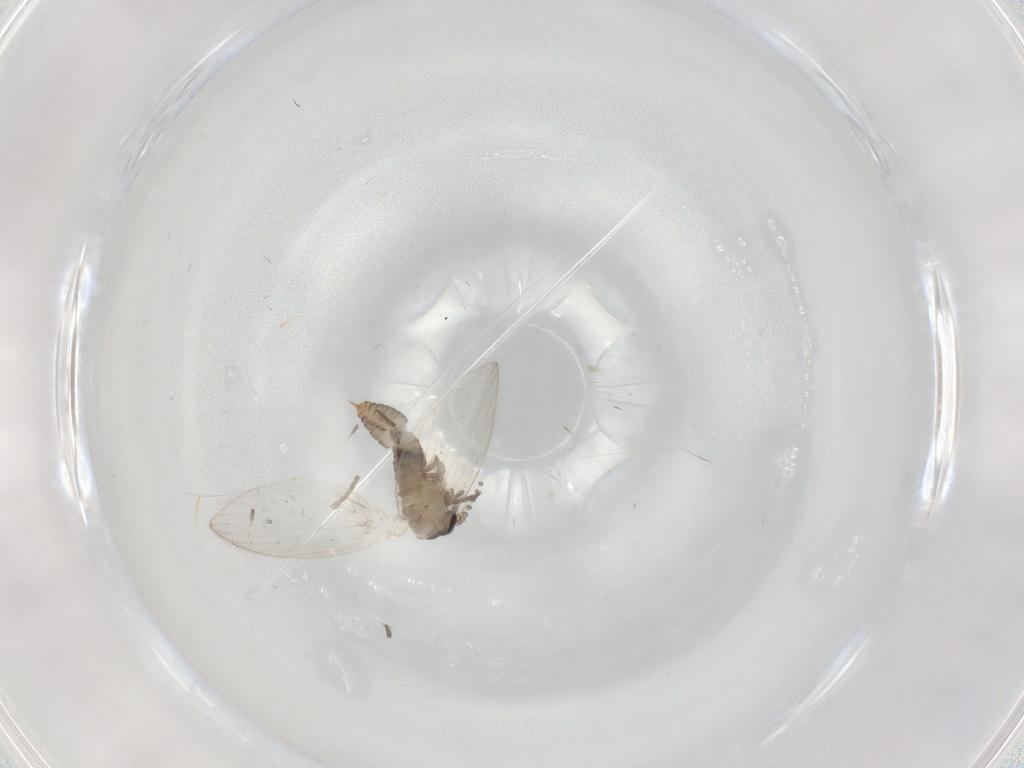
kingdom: Animalia
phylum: Arthropoda
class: Insecta
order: Diptera
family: Psychodidae
